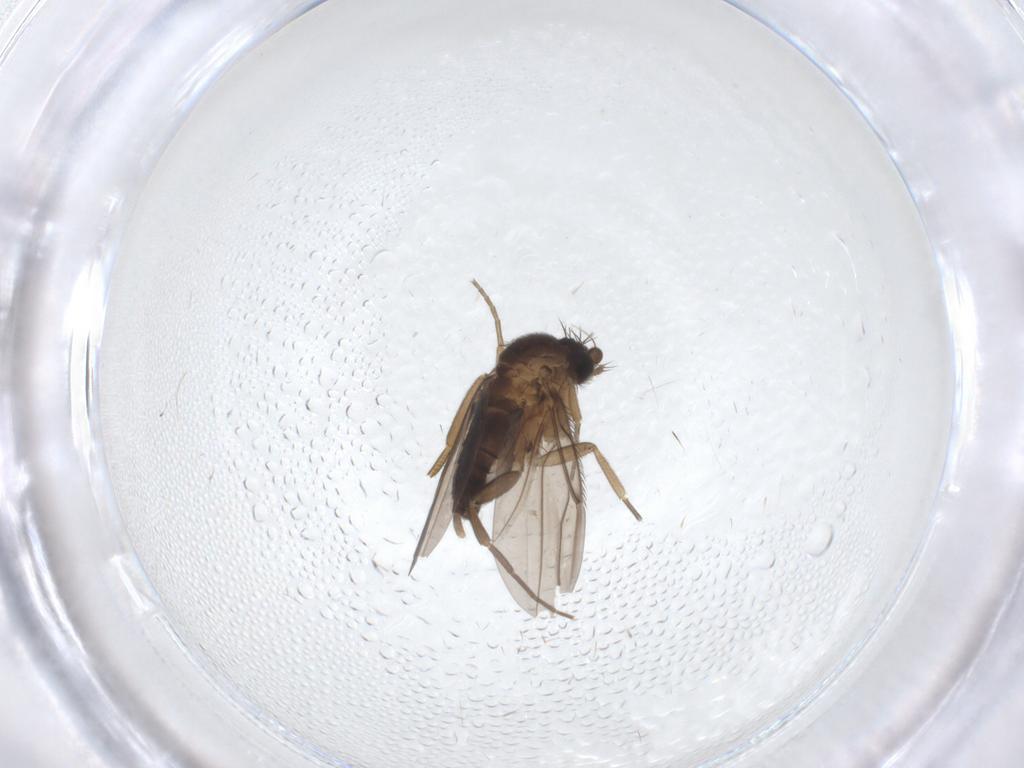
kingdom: Animalia
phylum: Arthropoda
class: Insecta
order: Diptera
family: Phoridae
